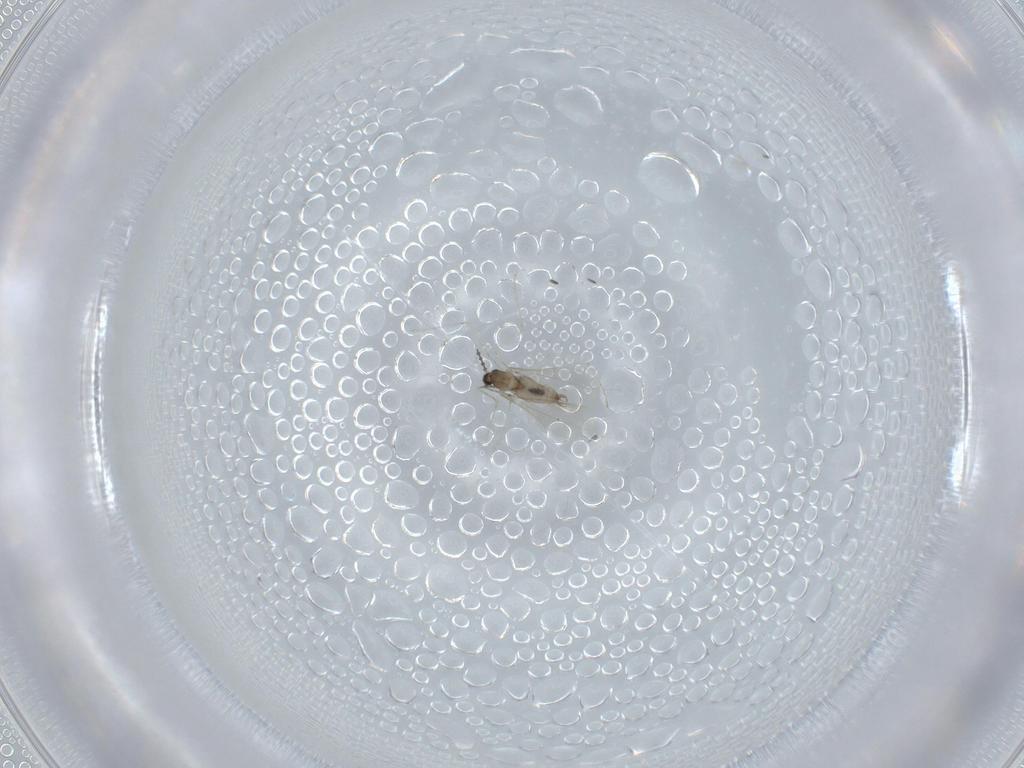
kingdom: Animalia
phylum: Arthropoda
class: Insecta
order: Diptera
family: Cecidomyiidae
